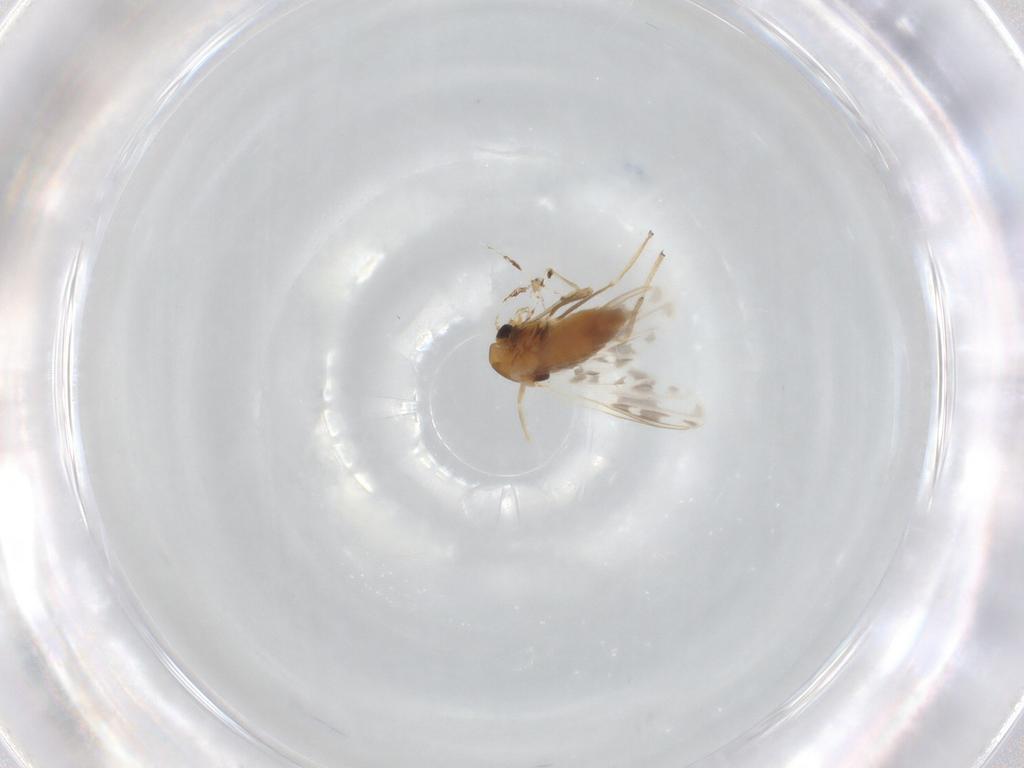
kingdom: Animalia
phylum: Arthropoda
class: Insecta
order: Diptera
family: Chironomidae
